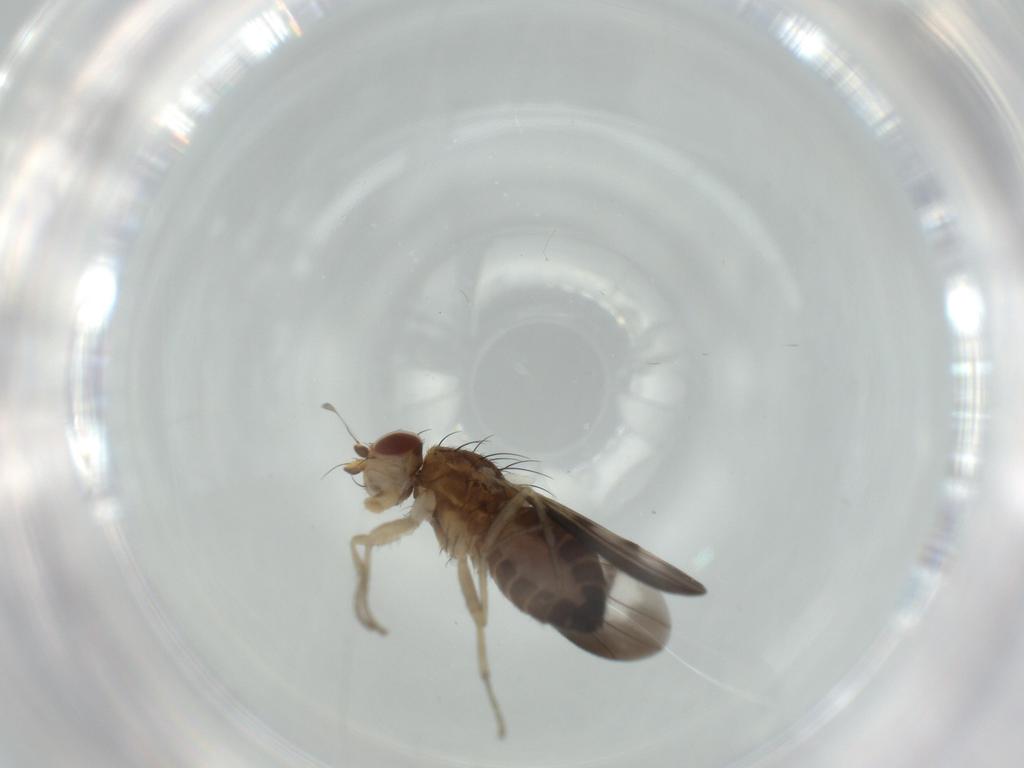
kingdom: Animalia
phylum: Arthropoda
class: Insecta
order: Diptera
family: Heleomyzidae
